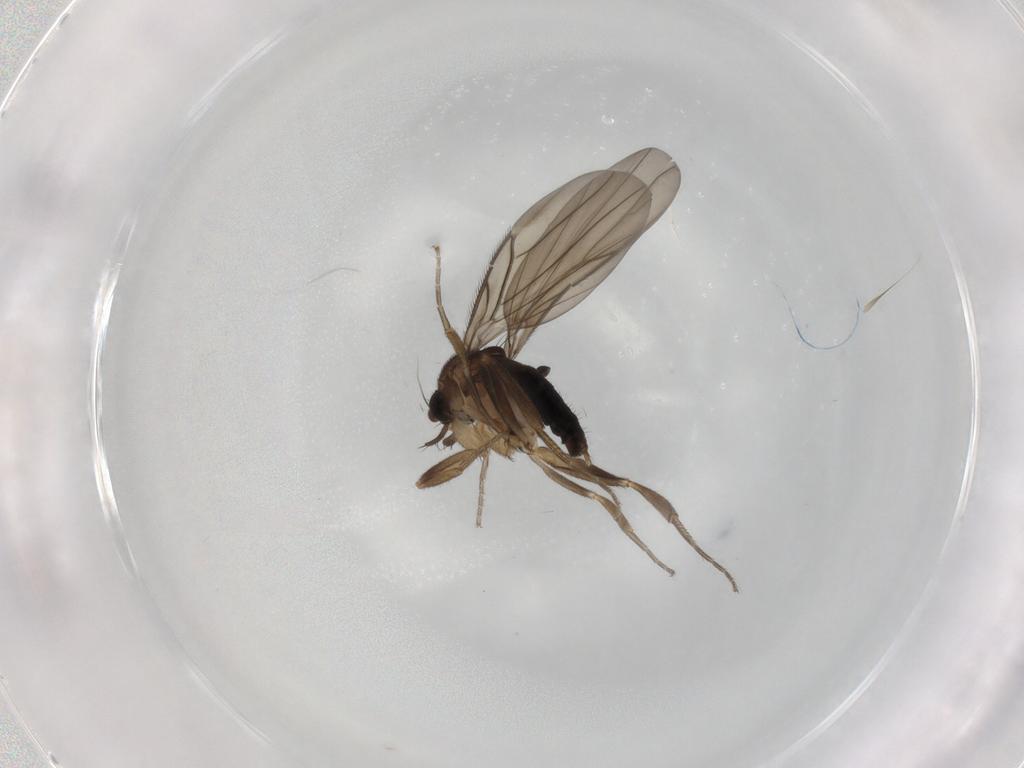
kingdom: Animalia
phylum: Arthropoda
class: Insecta
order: Diptera
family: Phoridae
